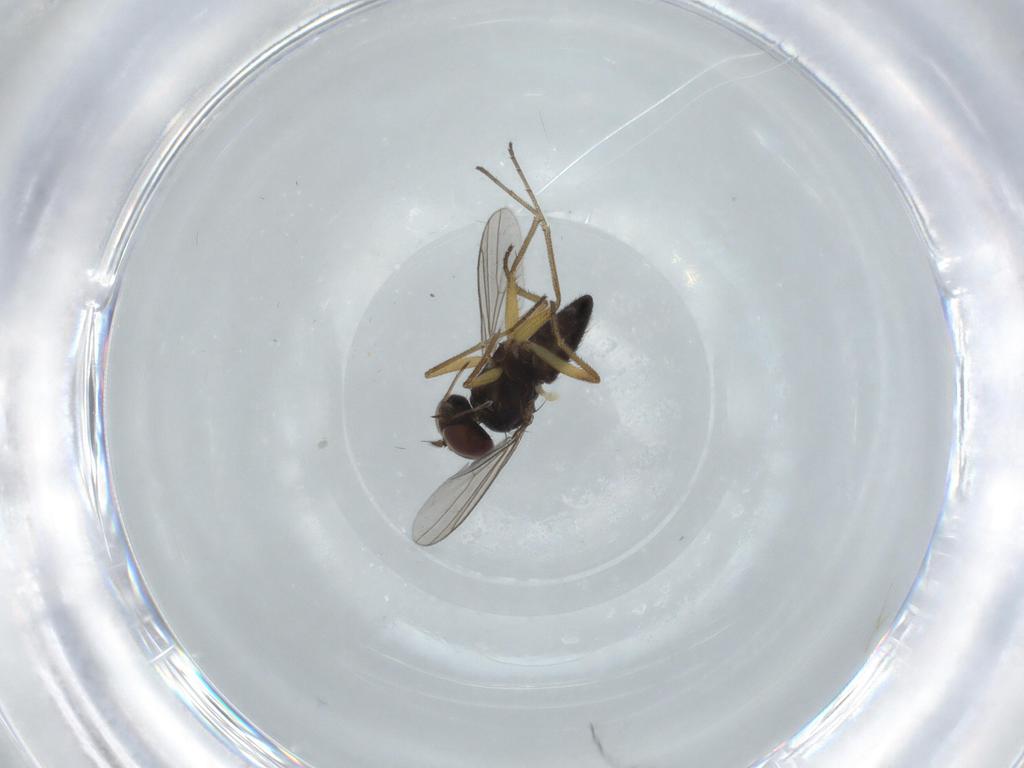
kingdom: Animalia
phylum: Arthropoda
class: Insecta
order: Diptera
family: Dolichopodidae
